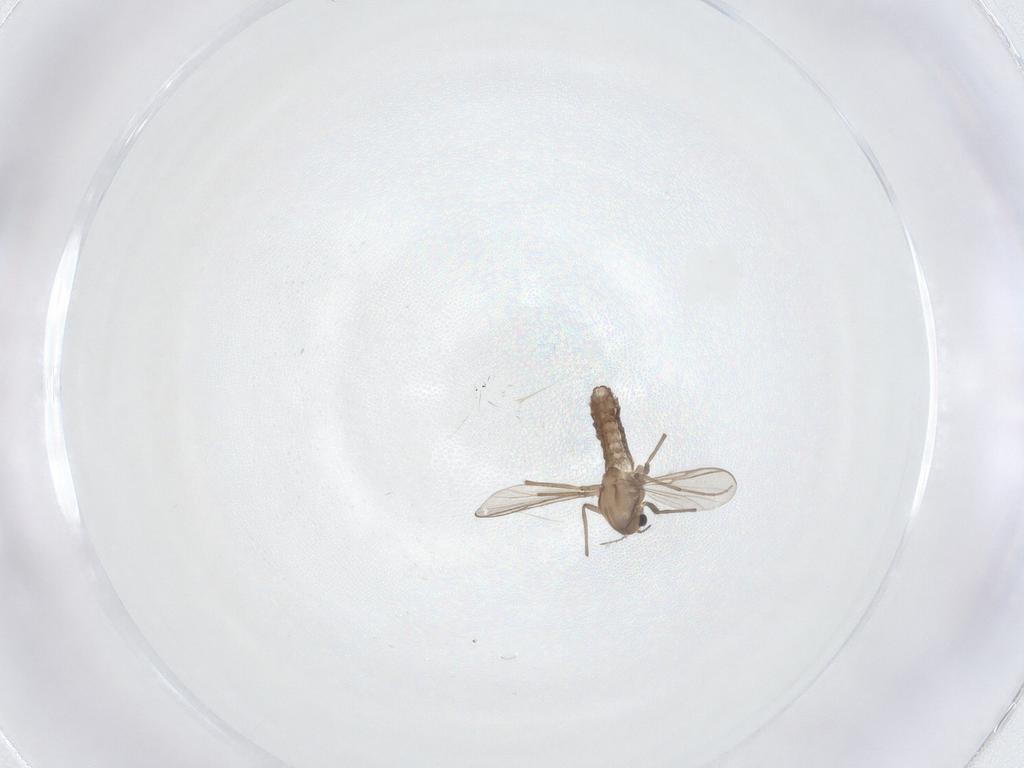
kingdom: Animalia
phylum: Arthropoda
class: Insecta
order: Diptera
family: Chironomidae
